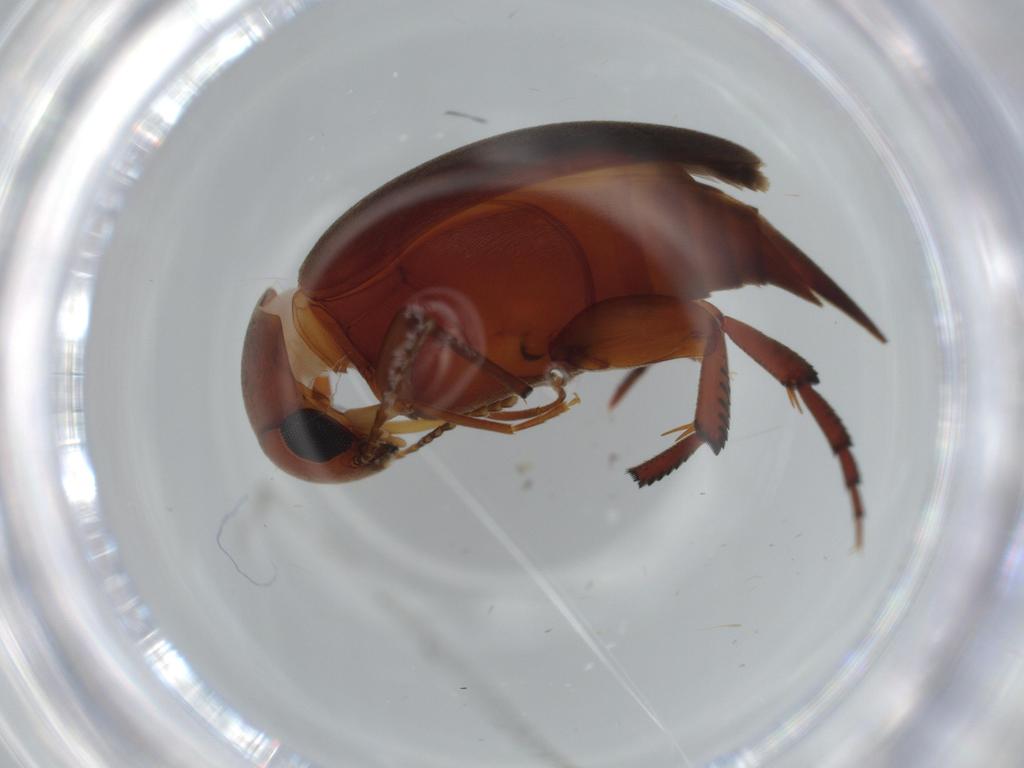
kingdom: Animalia
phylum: Arthropoda
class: Insecta
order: Coleoptera
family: Mordellidae
